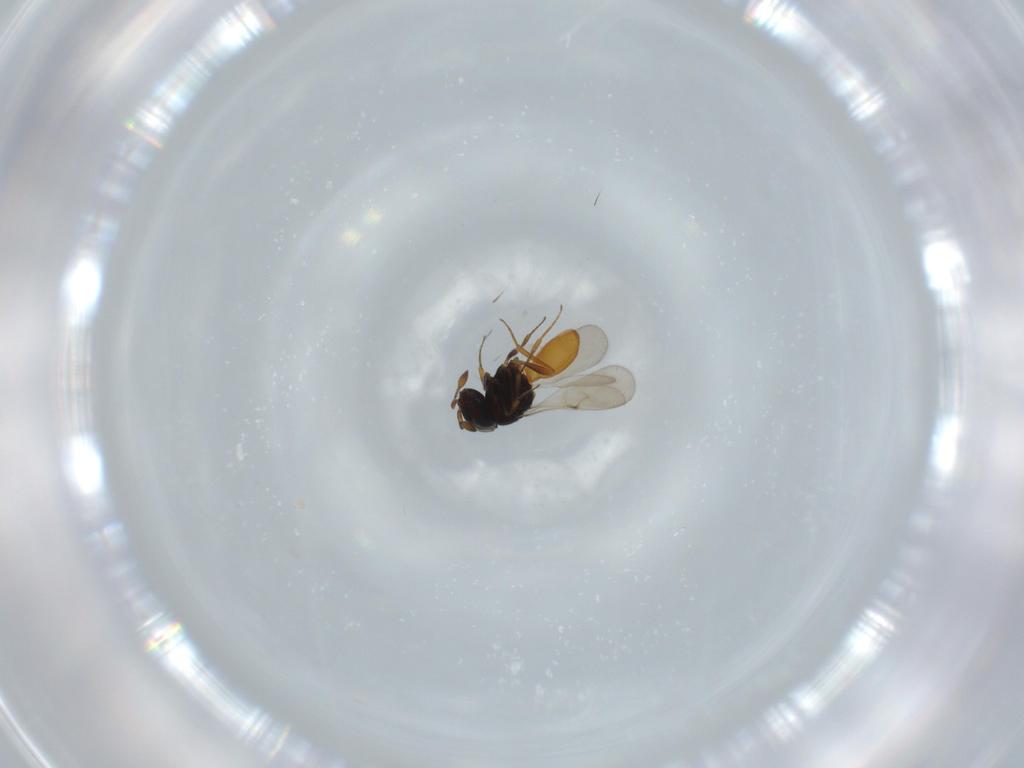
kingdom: Animalia
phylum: Arthropoda
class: Insecta
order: Hymenoptera
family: Scelionidae
